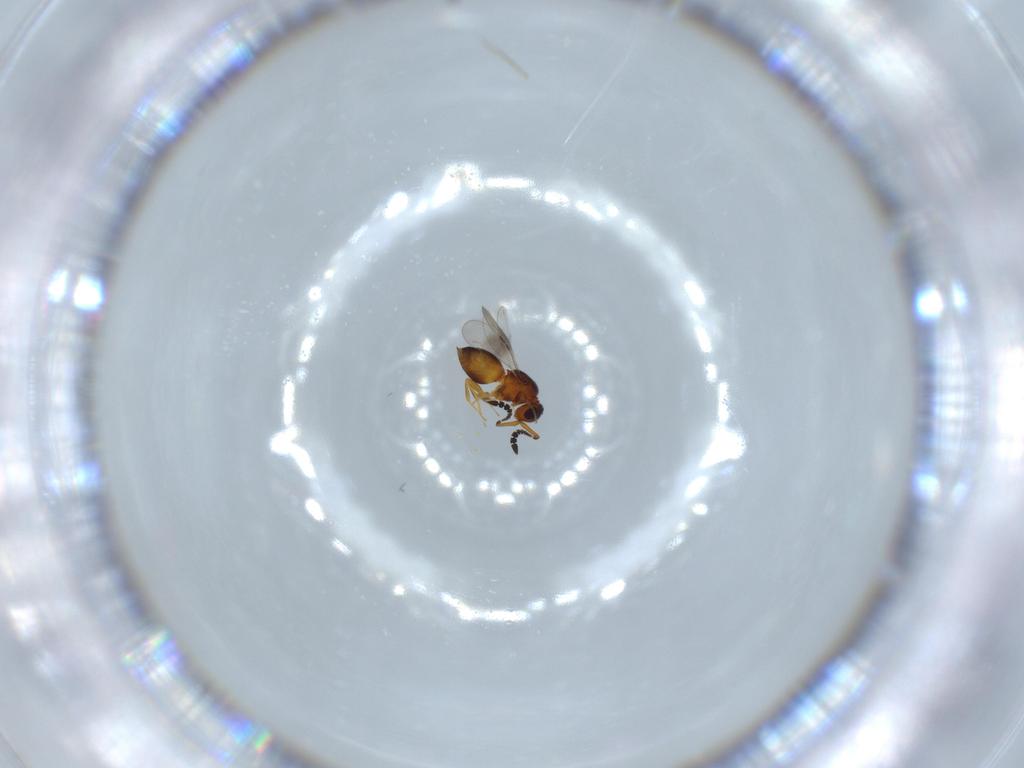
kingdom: Animalia
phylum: Arthropoda
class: Insecta
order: Hymenoptera
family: Ceraphronidae
